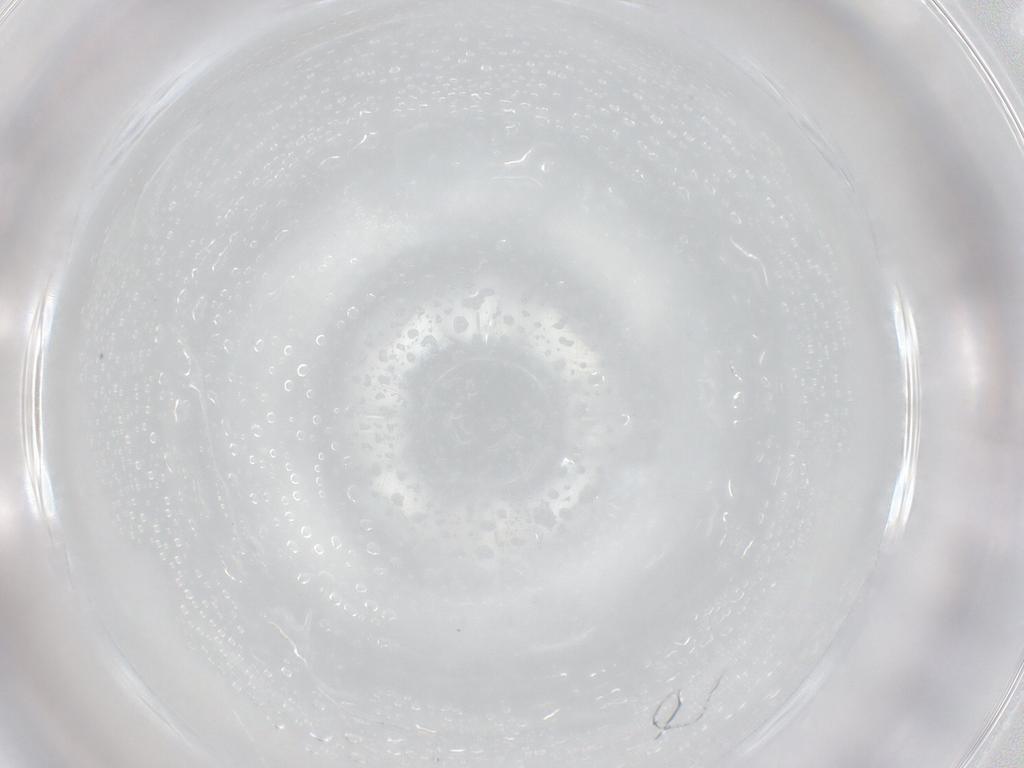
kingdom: Animalia
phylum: Arthropoda
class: Insecta
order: Diptera
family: Chironomidae
